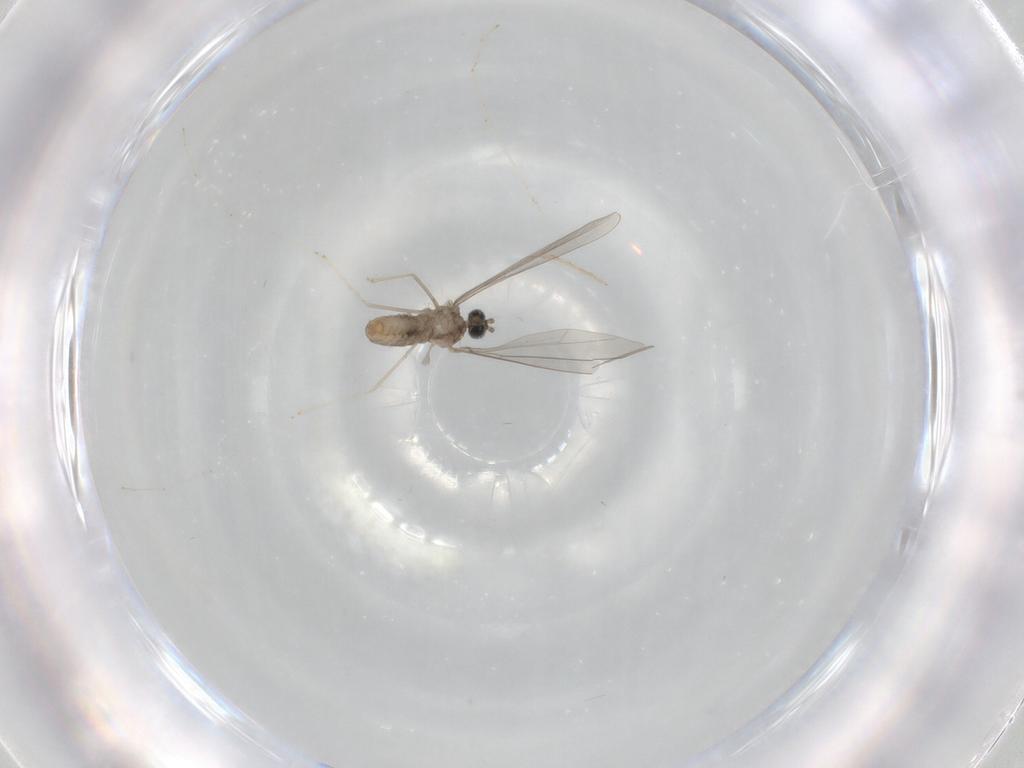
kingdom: Animalia
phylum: Arthropoda
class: Insecta
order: Diptera
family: Cecidomyiidae
